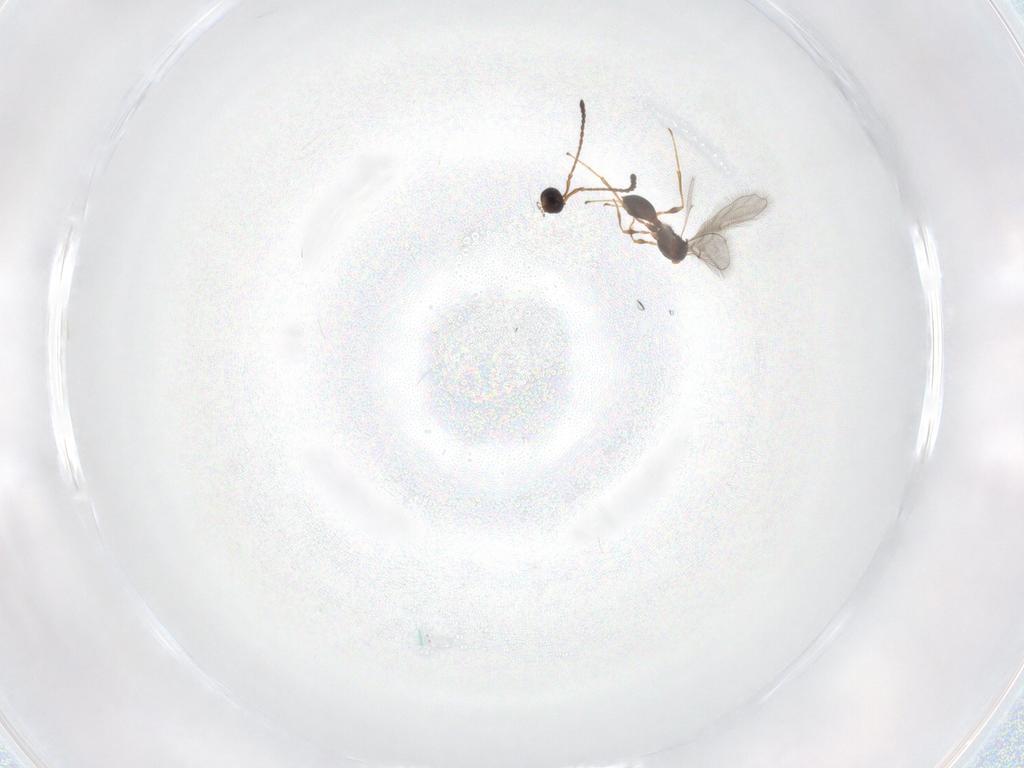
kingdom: Animalia
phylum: Arthropoda
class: Insecta
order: Hymenoptera
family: Diapriidae
